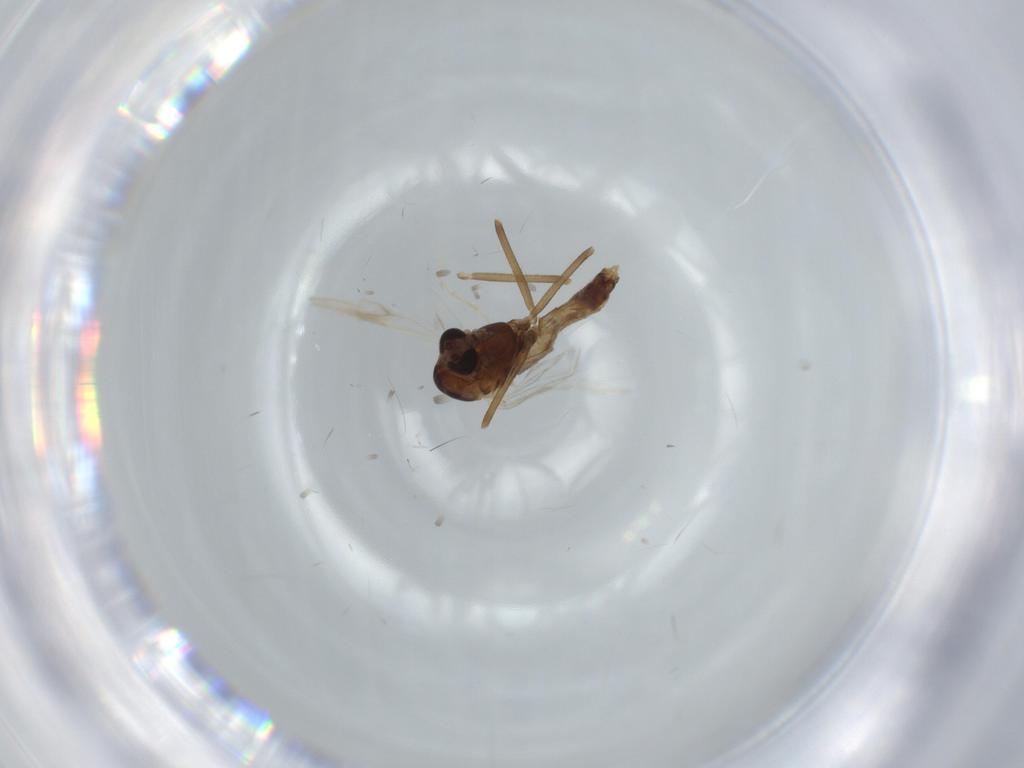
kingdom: Animalia
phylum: Arthropoda
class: Insecta
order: Diptera
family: Chironomidae
